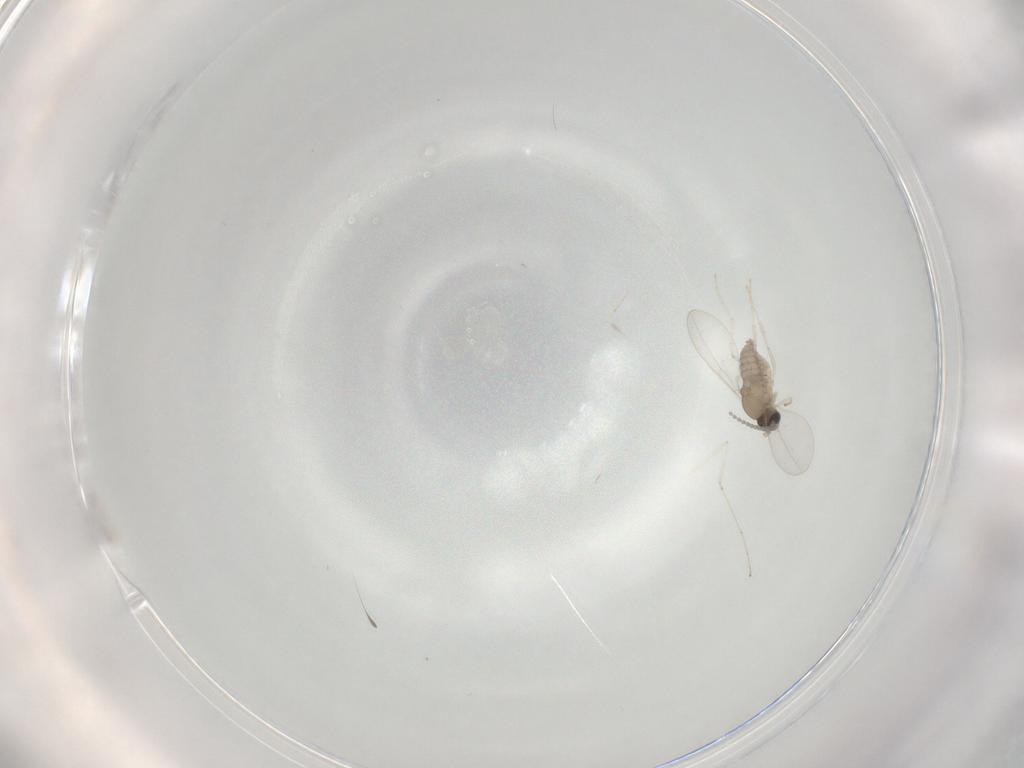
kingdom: Animalia
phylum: Arthropoda
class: Insecta
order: Diptera
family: Cecidomyiidae
